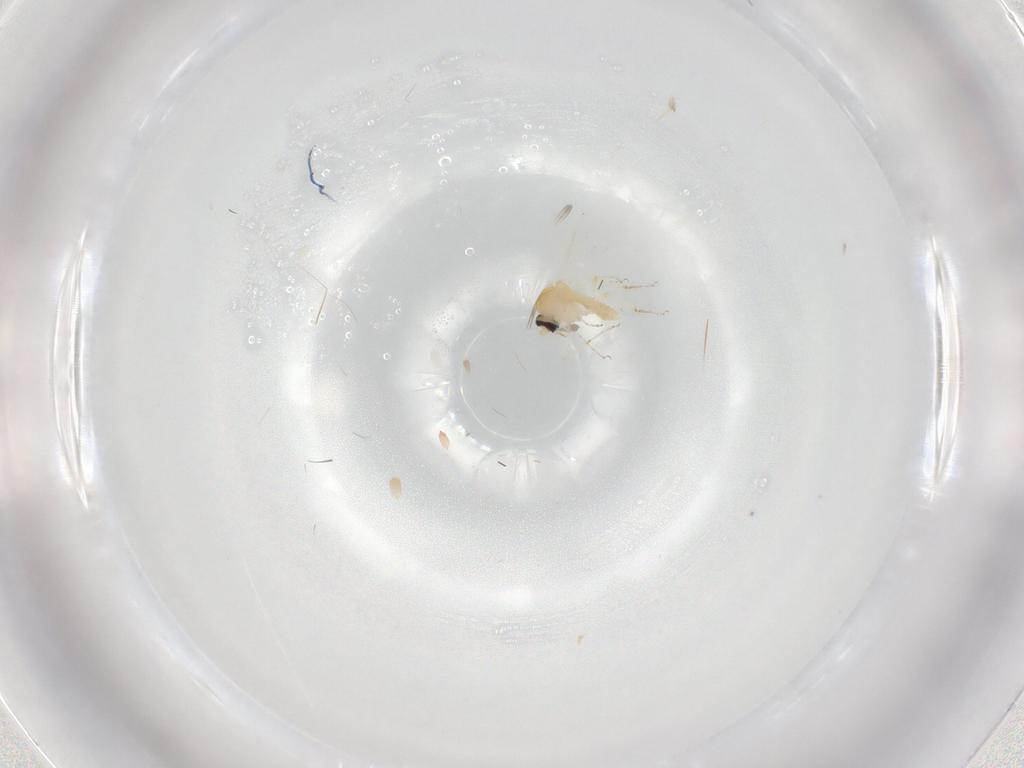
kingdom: Animalia
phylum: Arthropoda
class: Insecta
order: Diptera
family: Ceratopogonidae
